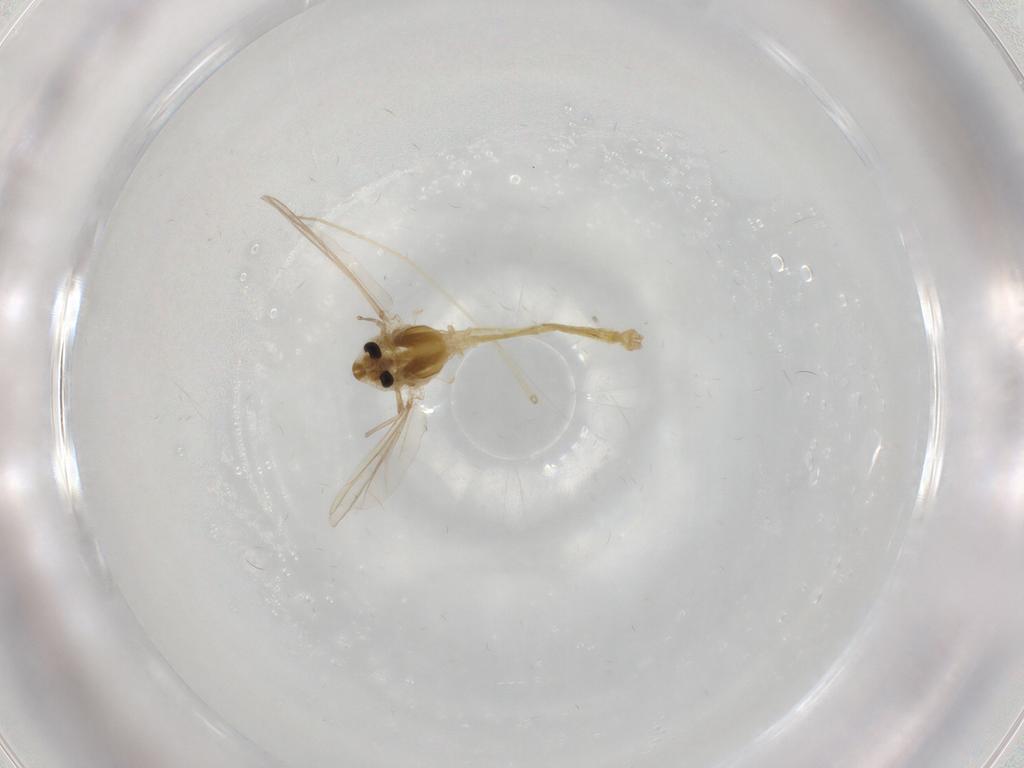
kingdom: Animalia
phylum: Arthropoda
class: Insecta
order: Diptera
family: Chironomidae
